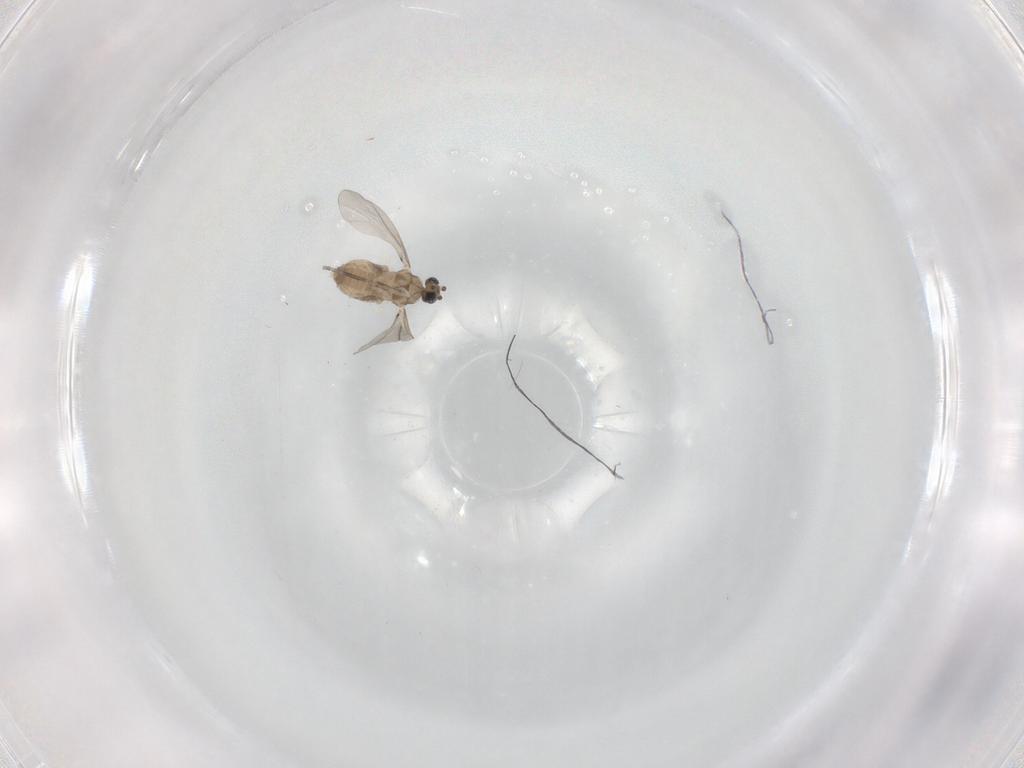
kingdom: Animalia
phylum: Arthropoda
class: Insecta
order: Diptera
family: Cecidomyiidae
